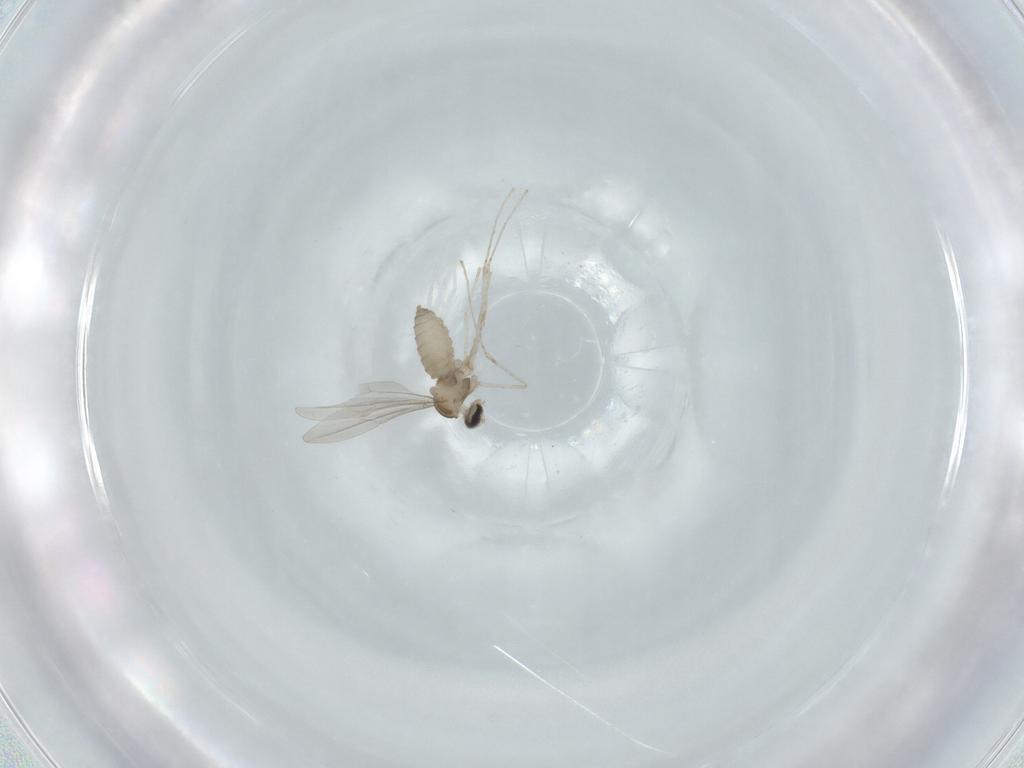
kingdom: Animalia
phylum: Arthropoda
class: Insecta
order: Diptera
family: Cecidomyiidae
